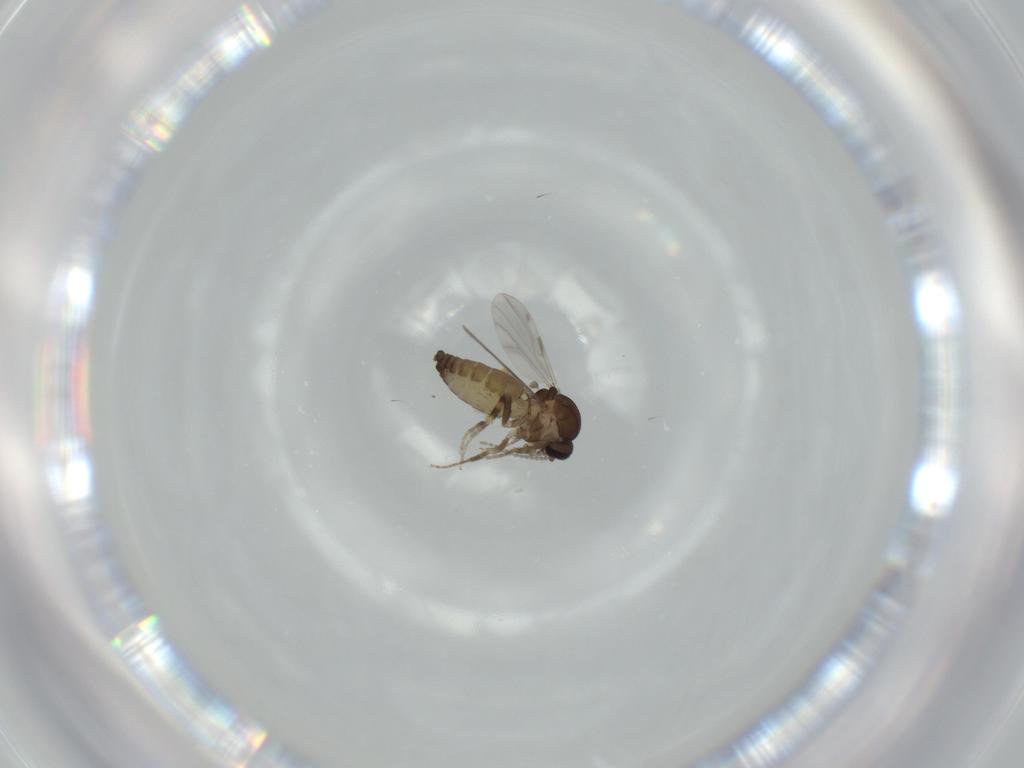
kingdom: Animalia
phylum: Arthropoda
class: Insecta
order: Diptera
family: Ceratopogonidae
